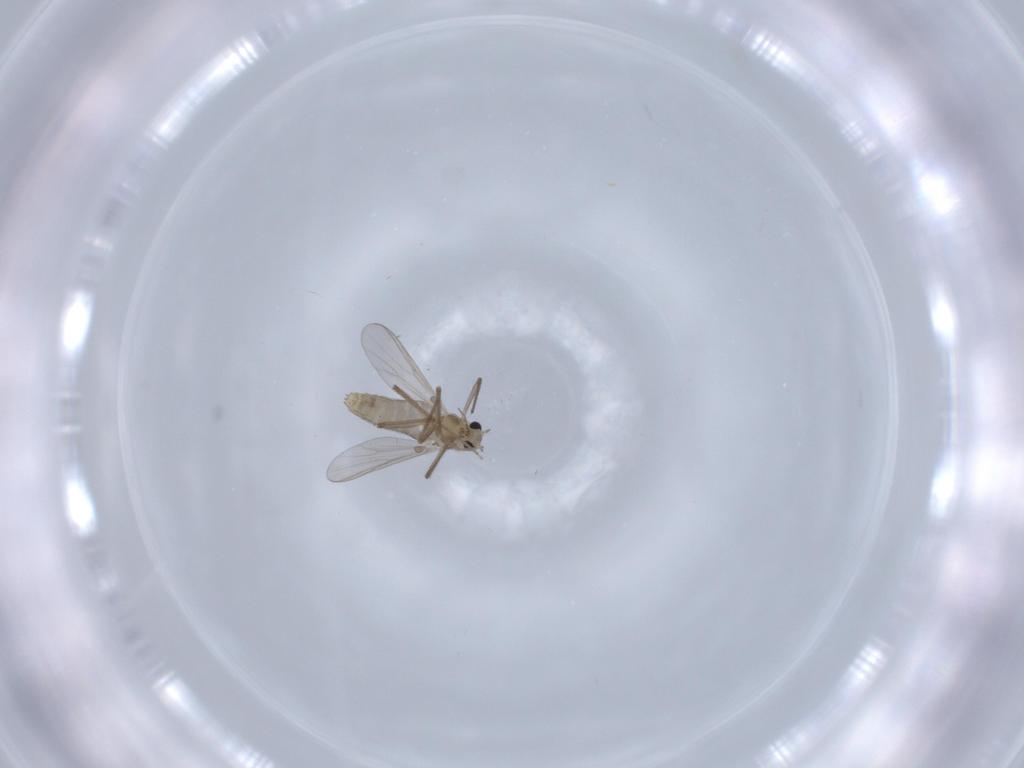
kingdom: Animalia
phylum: Arthropoda
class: Insecta
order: Diptera
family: Chironomidae
